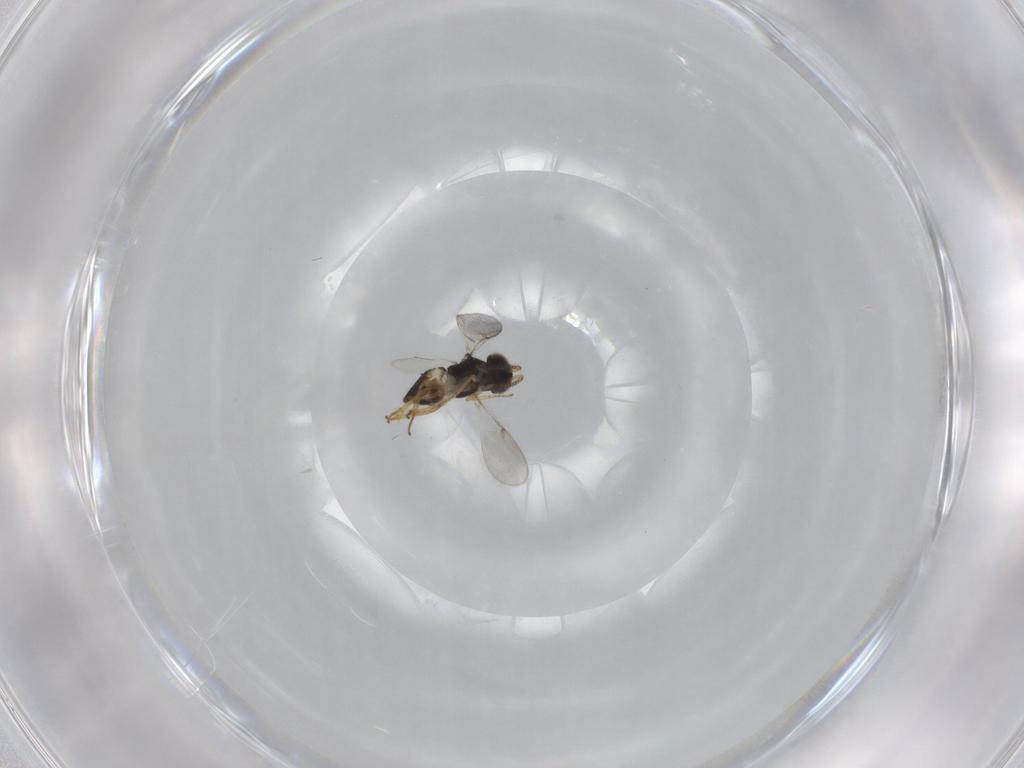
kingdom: Animalia
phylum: Arthropoda
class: Insecta
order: Hymenoptera
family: Encyrtidae
